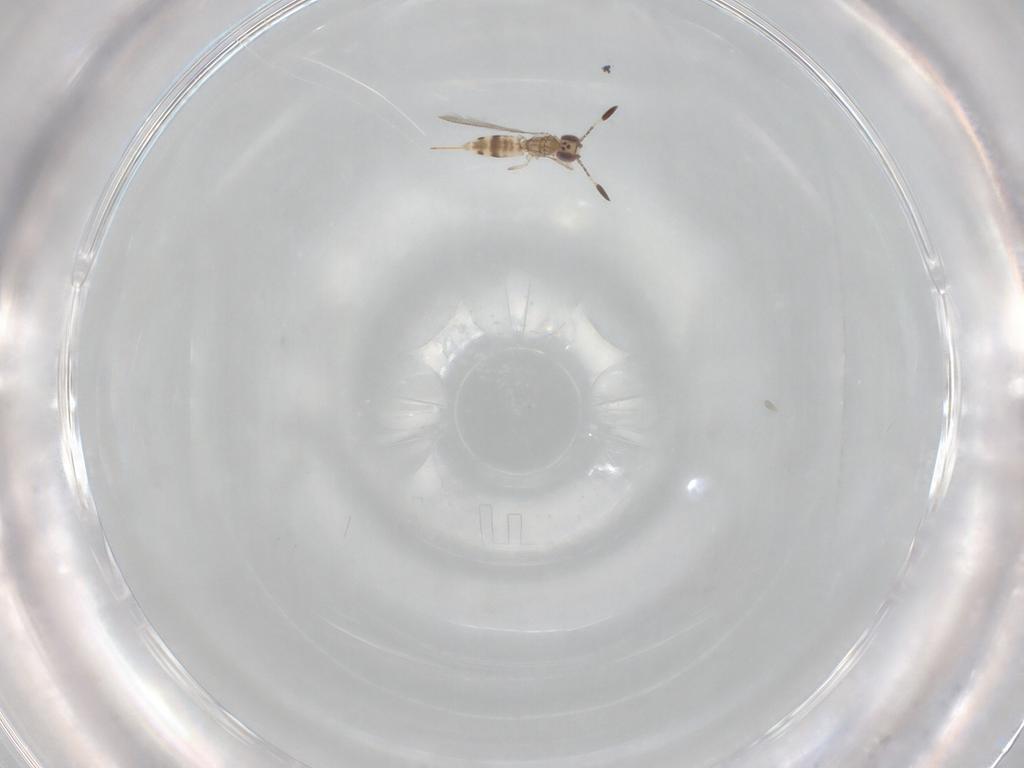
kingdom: Animalia
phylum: Arthropoda
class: Insecta
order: Hymenoptera
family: Mymaridae
